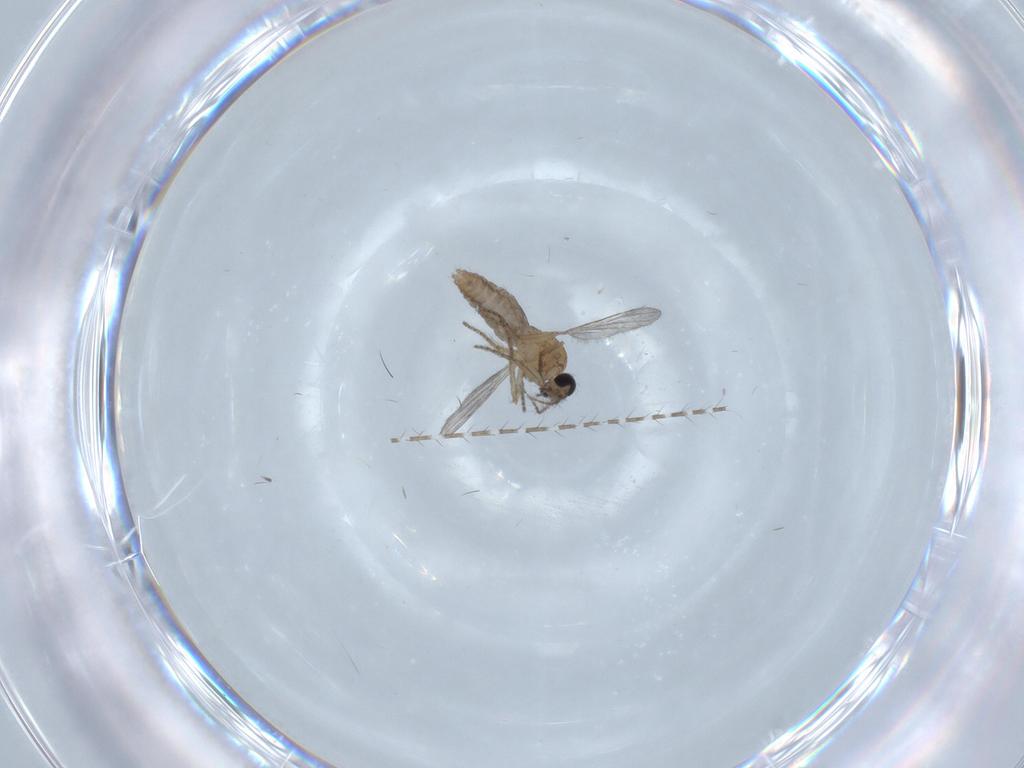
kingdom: Animalia
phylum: Arthropoda
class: Insecta
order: Diptera
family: Ceratopogonidae
